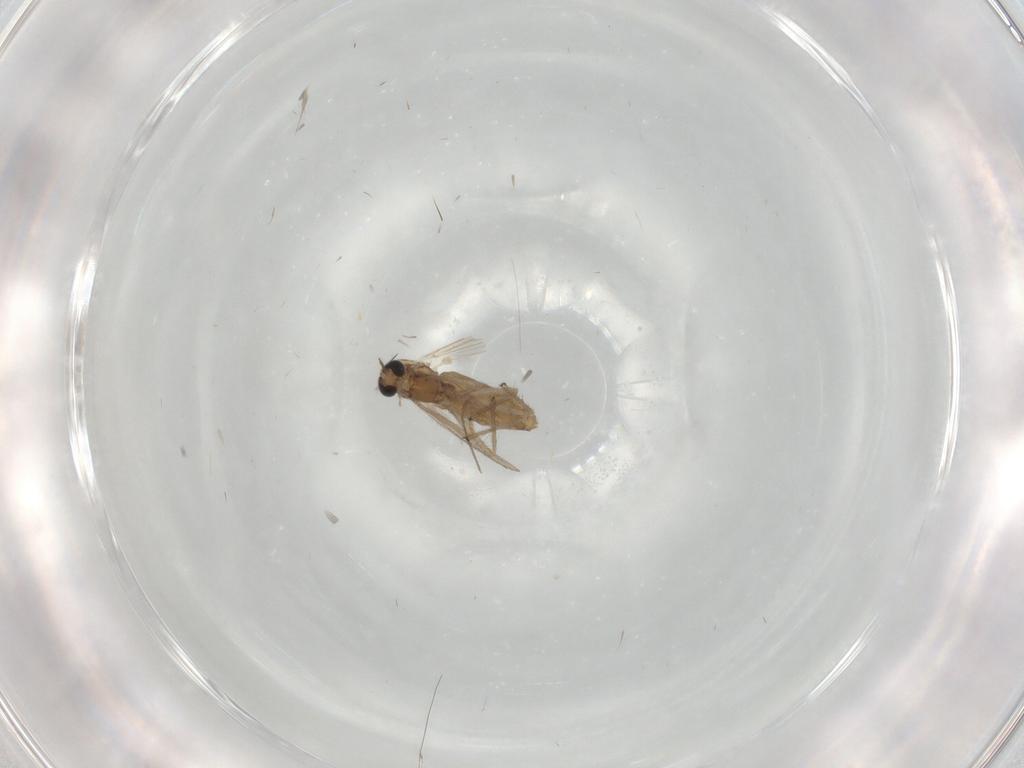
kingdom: Animalia
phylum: Arthropoda
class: Insecta
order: Diptera
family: Chironomidae
